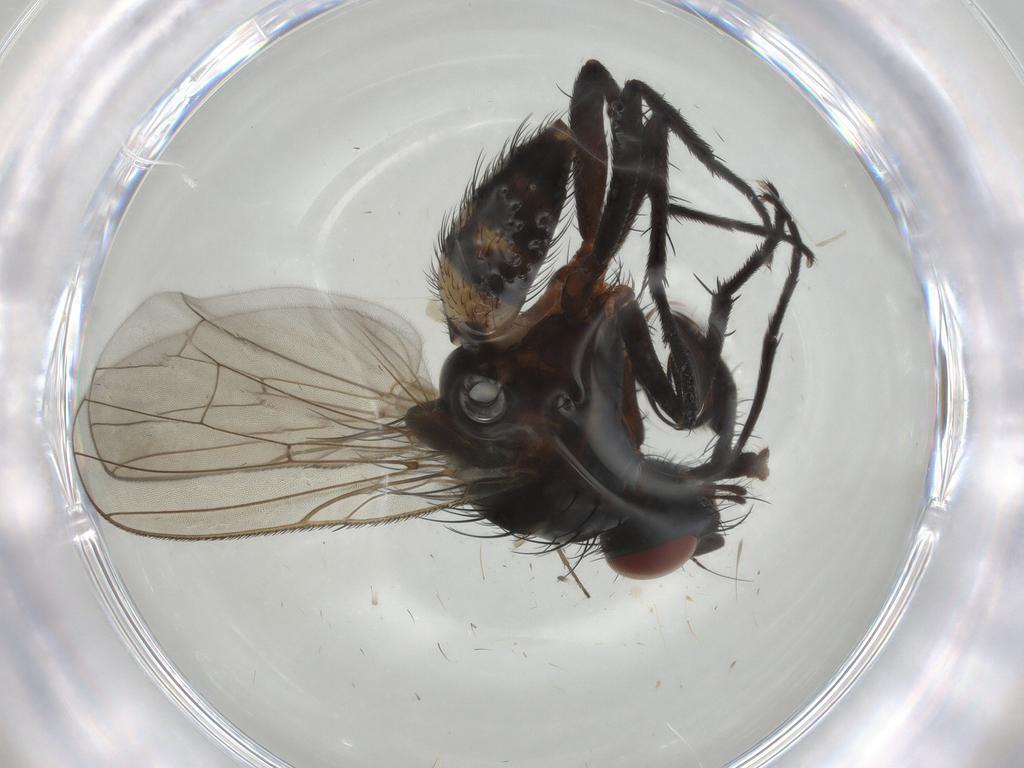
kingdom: Animalia
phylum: Arthropoda
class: Insecta
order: Diptera
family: Anthomyiidae
